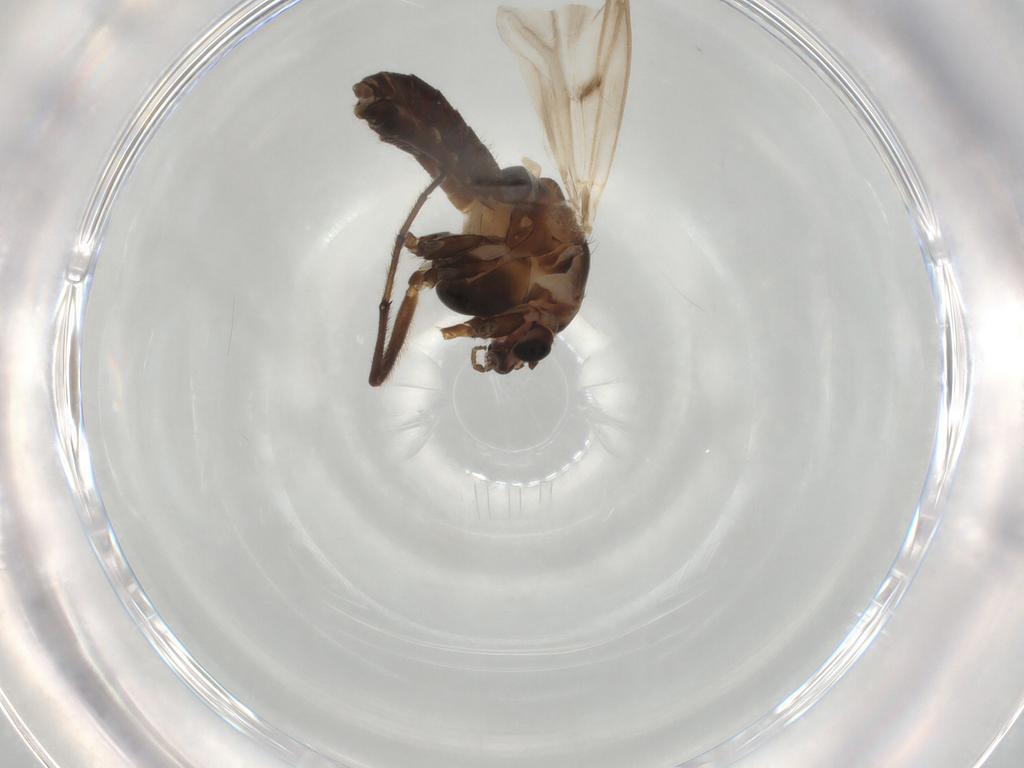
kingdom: Animalia
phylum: Arthropoda
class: Insecta
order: Diptera
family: Chironomidae
